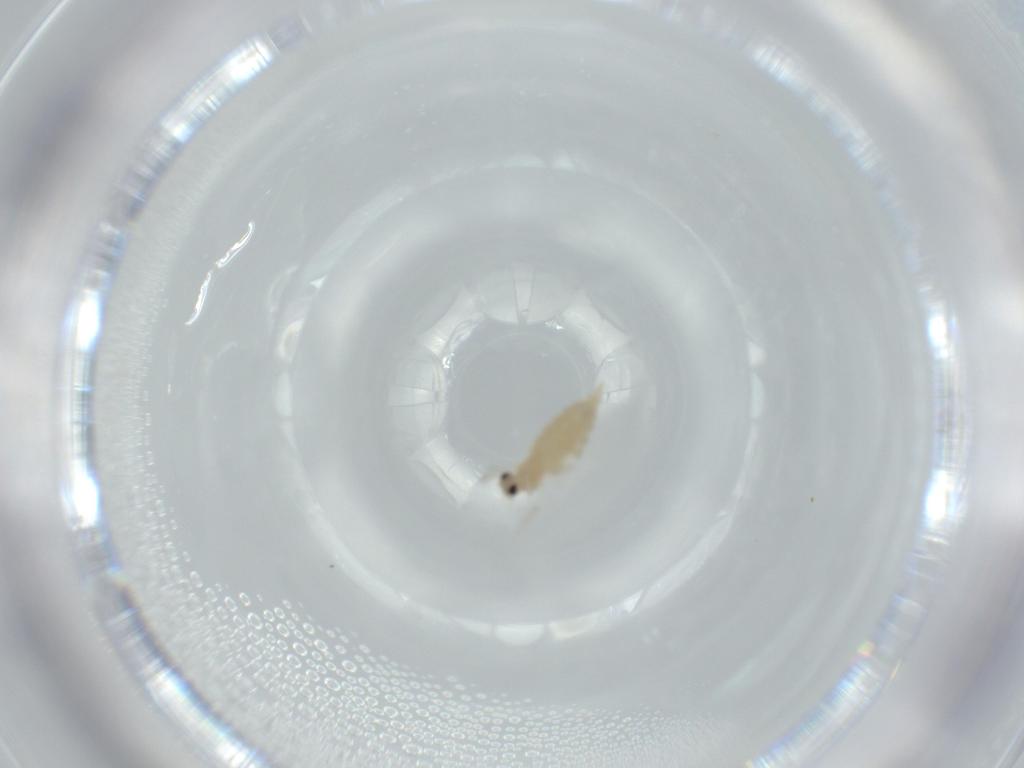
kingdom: Animalia
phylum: Arthropoda
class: Insecta
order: Diptera
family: Cecidomyiidae
